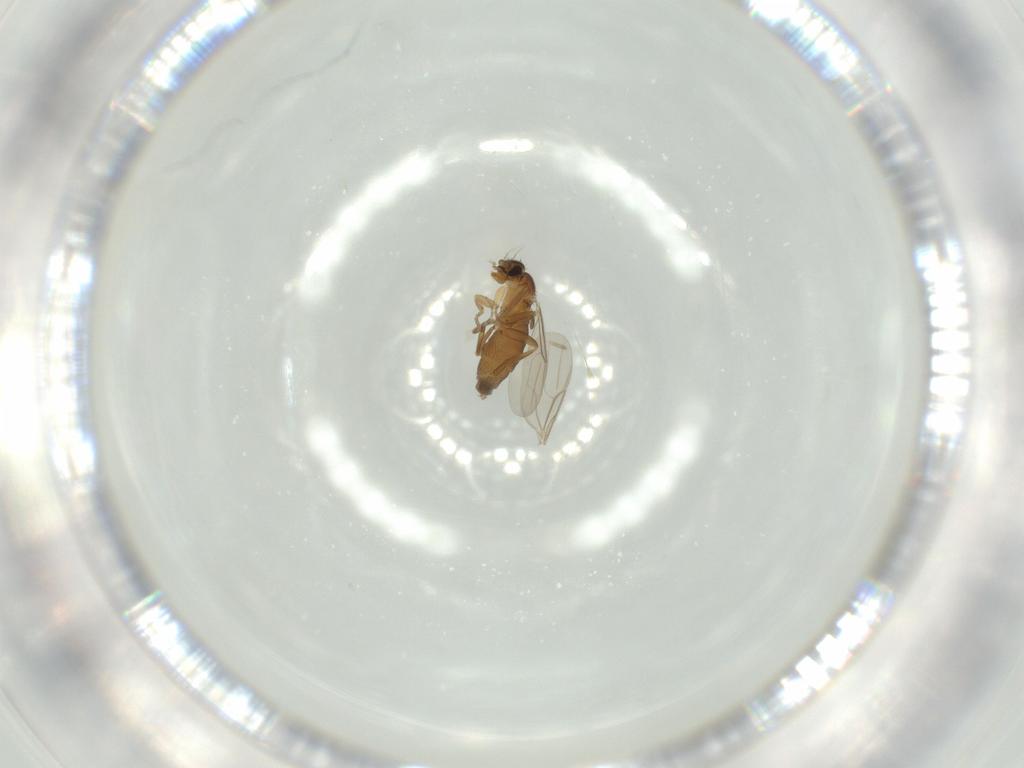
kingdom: Animalia
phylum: Arthropoda
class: Insecta
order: Diptera
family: Phoridae
